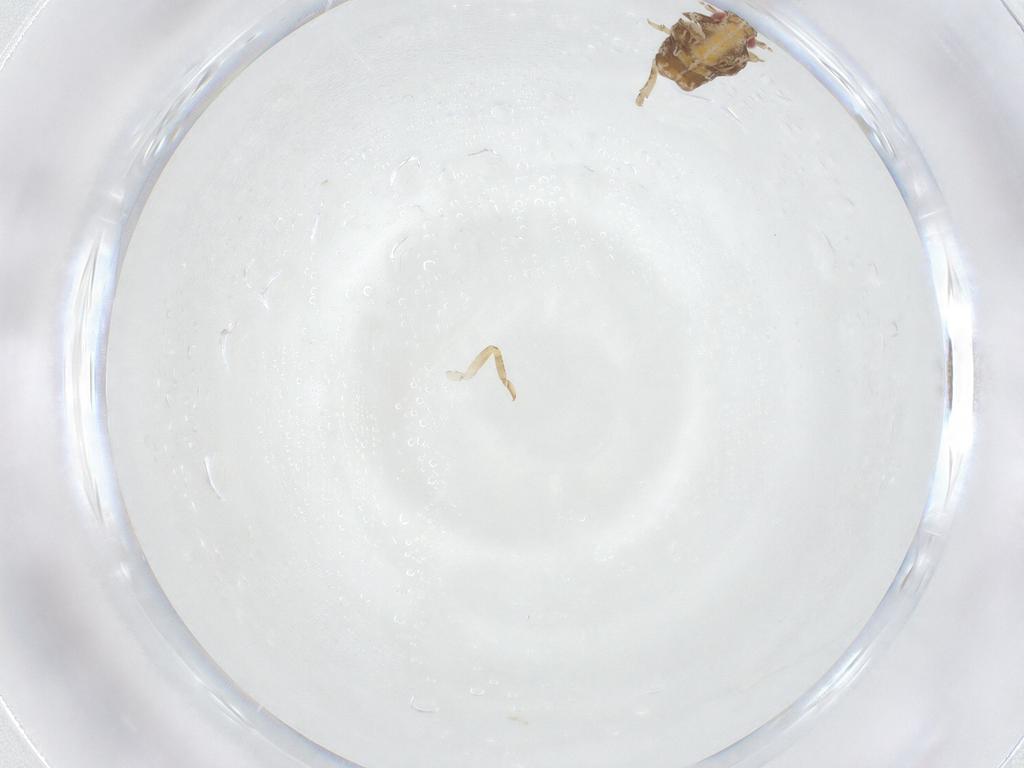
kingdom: Animalia
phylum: Arthropoda
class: Insecta
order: Hemiptera
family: Flatidae
